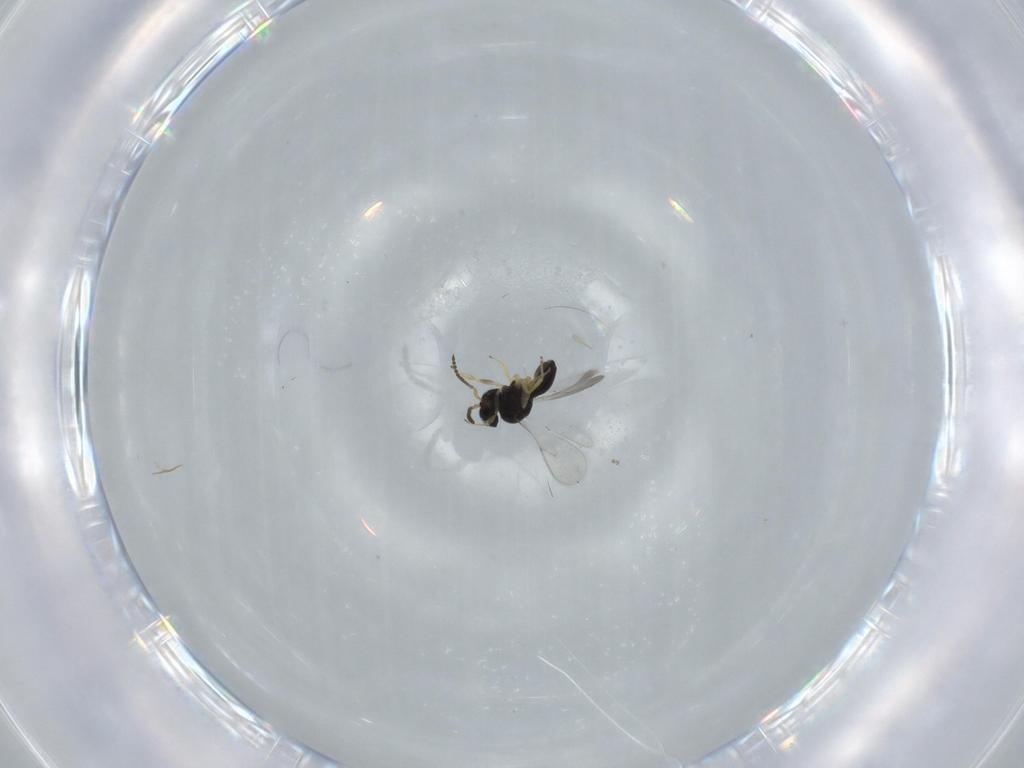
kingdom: Animalia
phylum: Arthropoda
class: Insecta
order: Hymenoptera
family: Scelionidae
